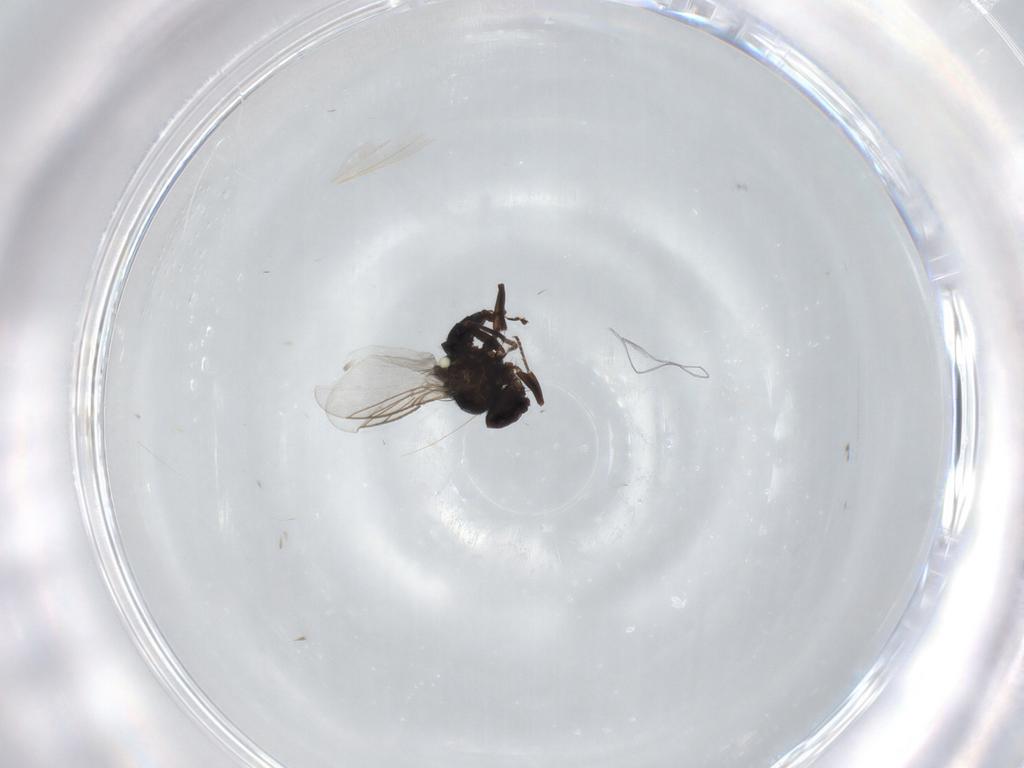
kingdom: Animalia
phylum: Arthropoda
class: Insecta
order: Diptera
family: Agromyzidae
